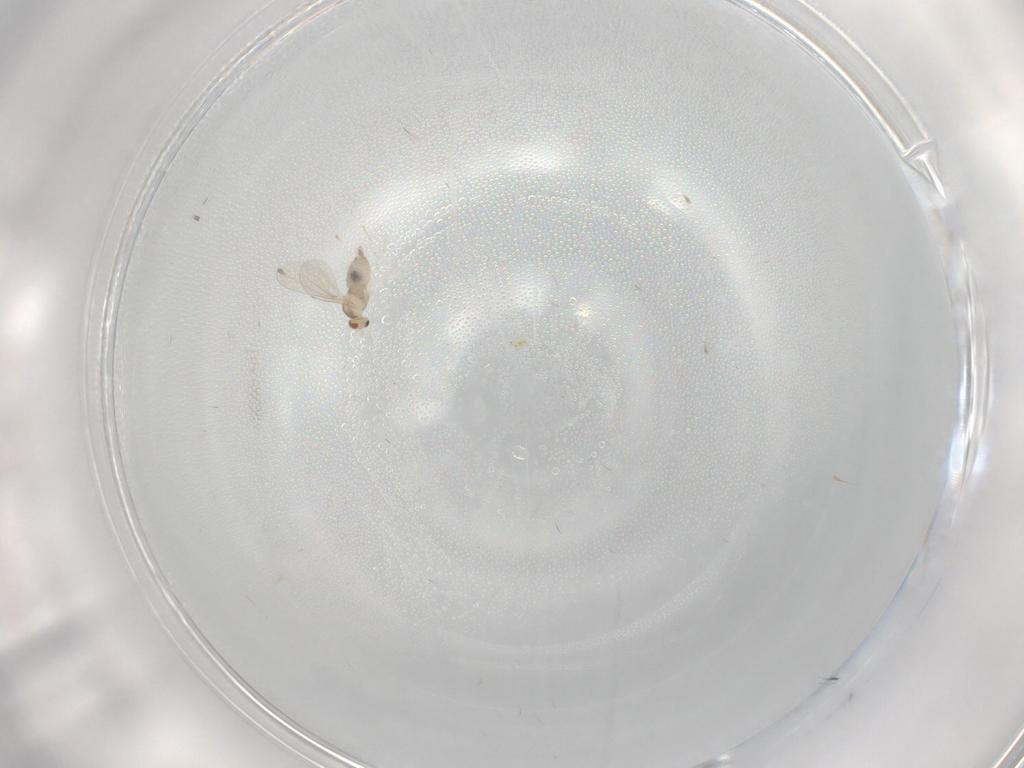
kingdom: Animalia
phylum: Arthropoda
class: Insecta
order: Diptera
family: Cecidomyiidae
